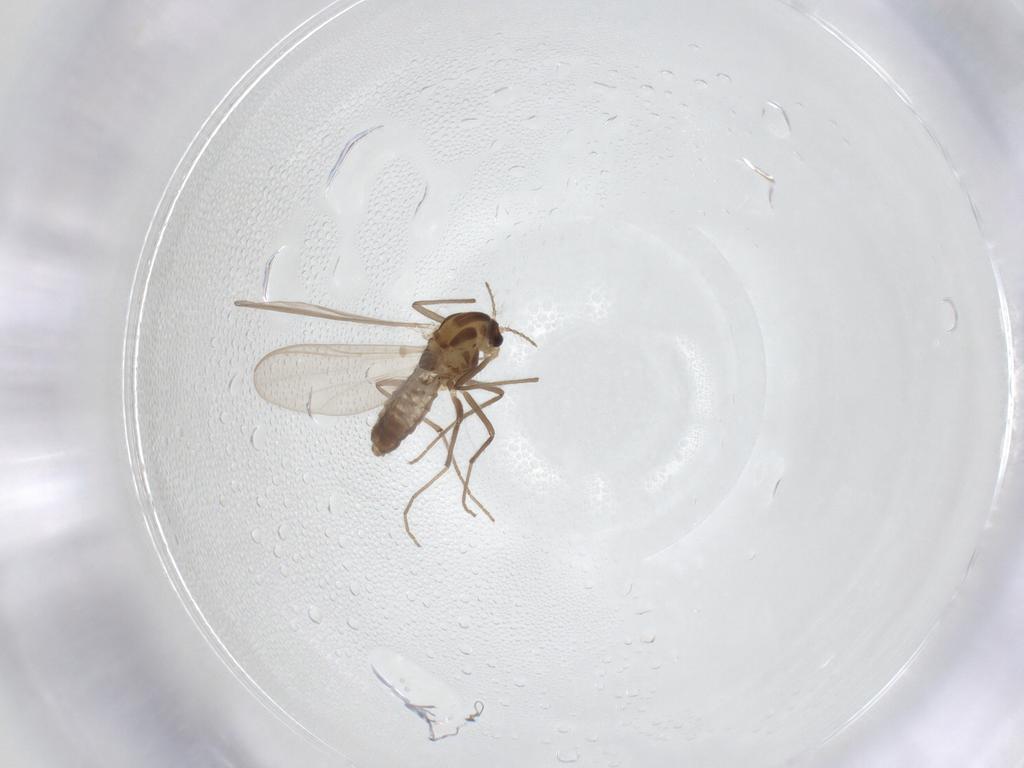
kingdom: Animalia
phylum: Arthropoda
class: Insecta
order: Diptera
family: Chironomidae
